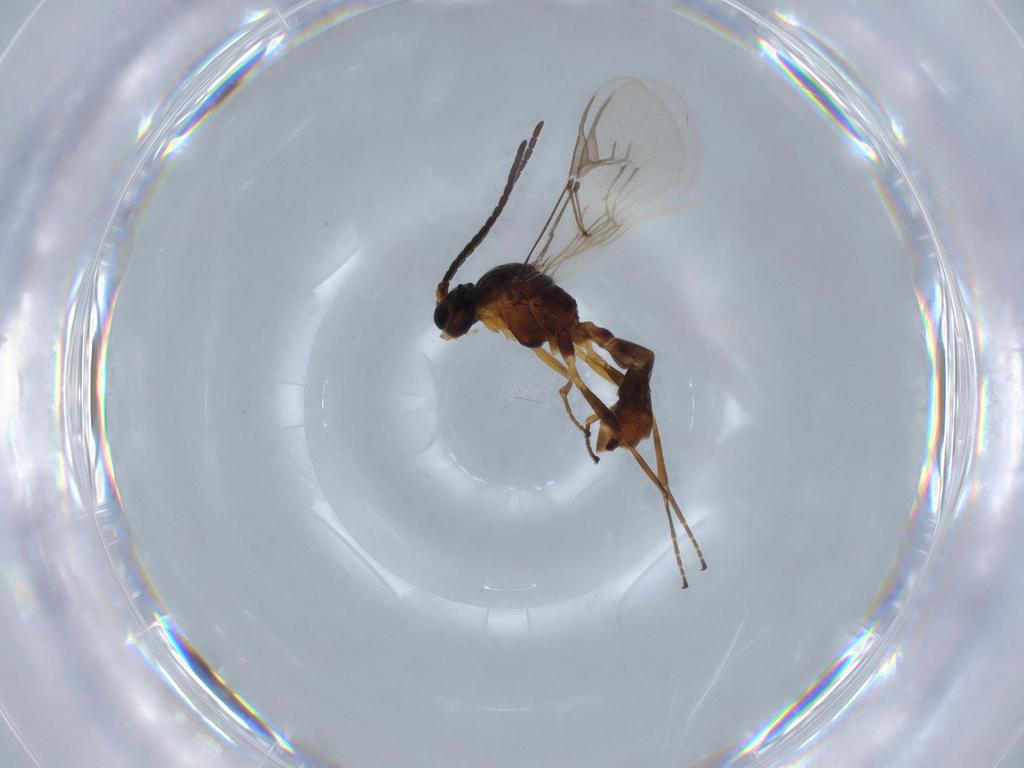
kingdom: Animalia
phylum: Arthropoda
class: Insecta
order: Hymenoptera
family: Braconidae
